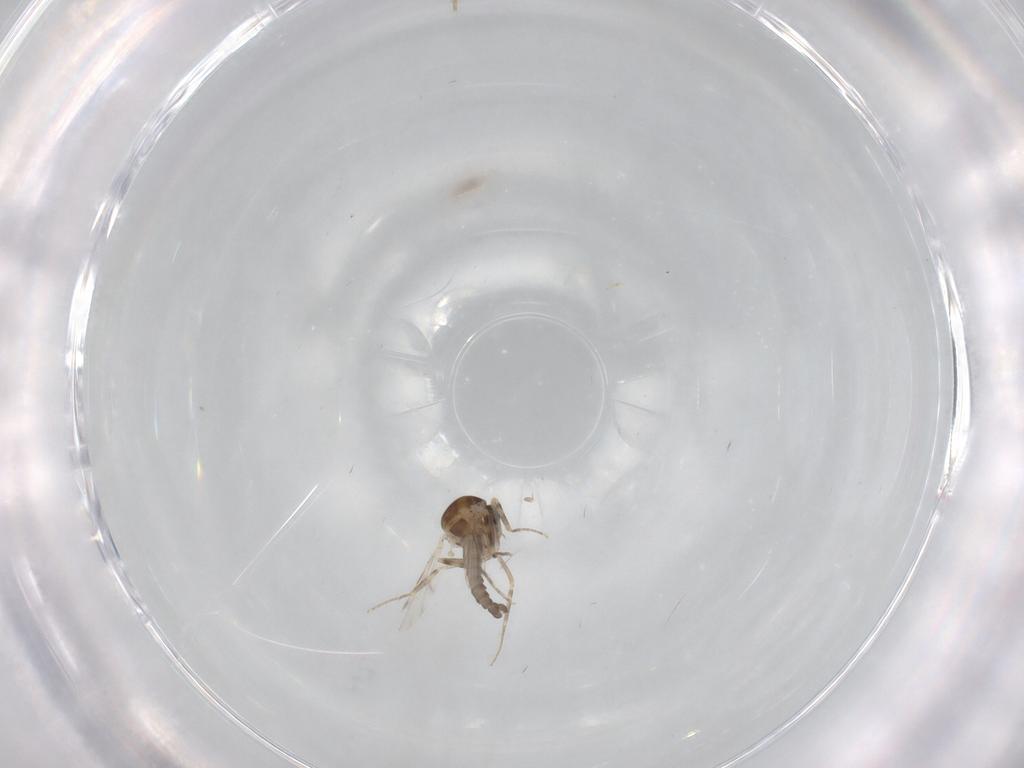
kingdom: Animalia
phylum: Arthropoda
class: Insecta
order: Diptera
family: Ceratopogonidae
